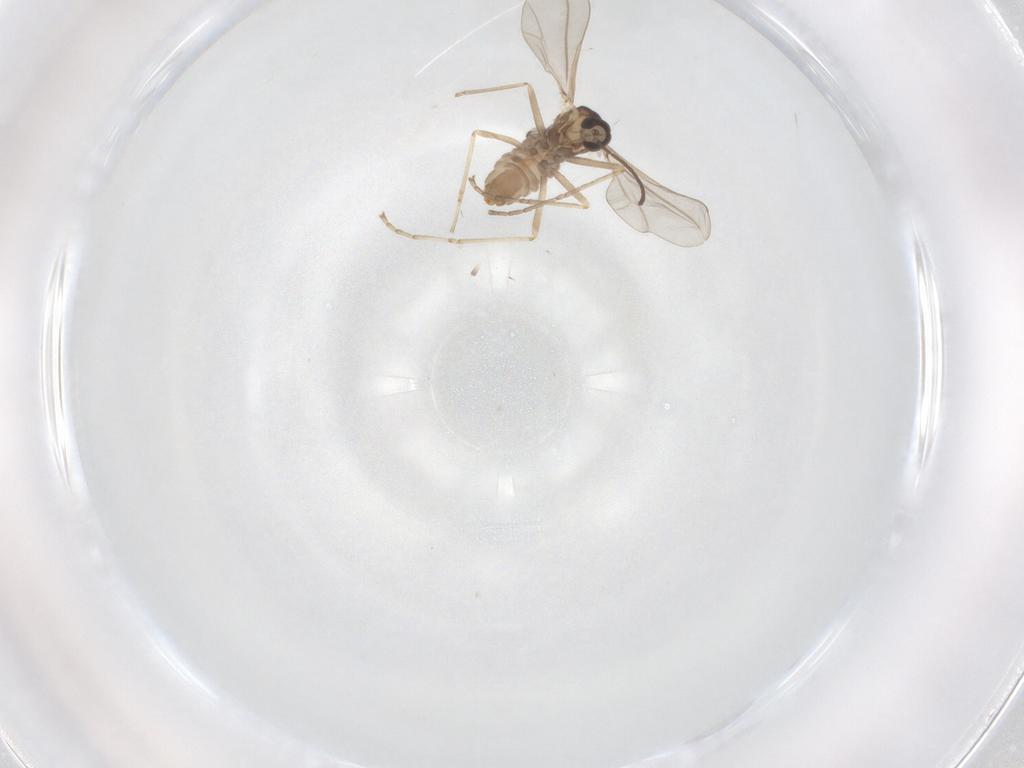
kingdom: Animalia
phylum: Arthropoda
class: Insecta
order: Diptera
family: Cecidomyiidae
